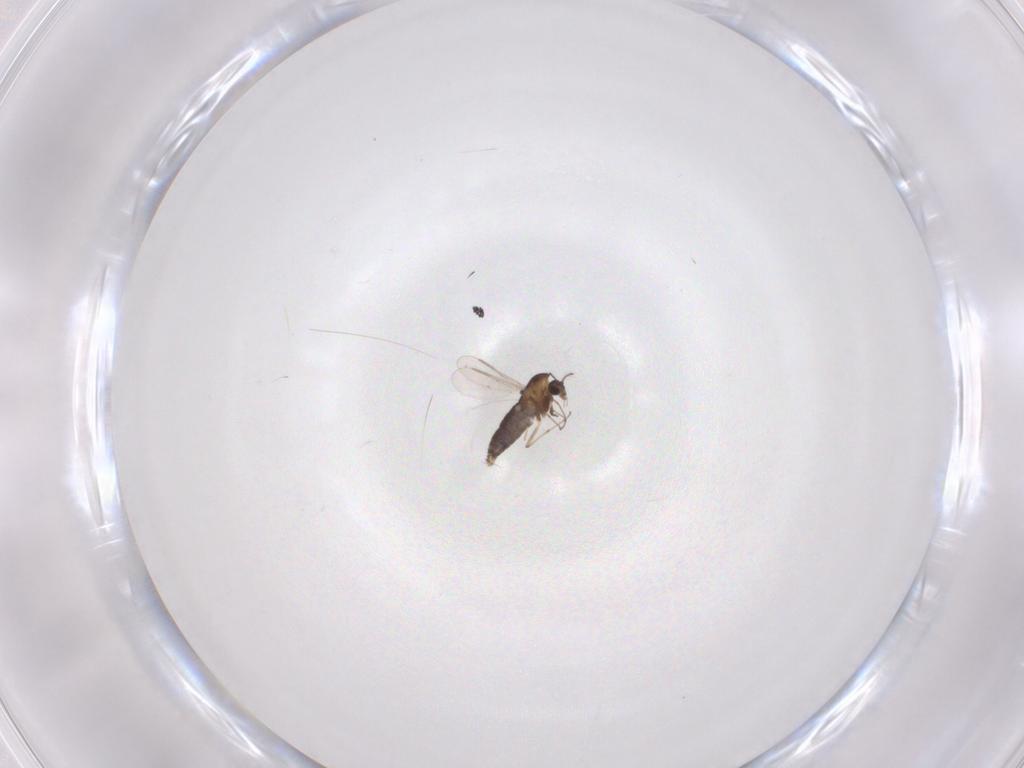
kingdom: Animalia
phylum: Arthropoda
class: Insecta
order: Diptera
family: Chironomidae
